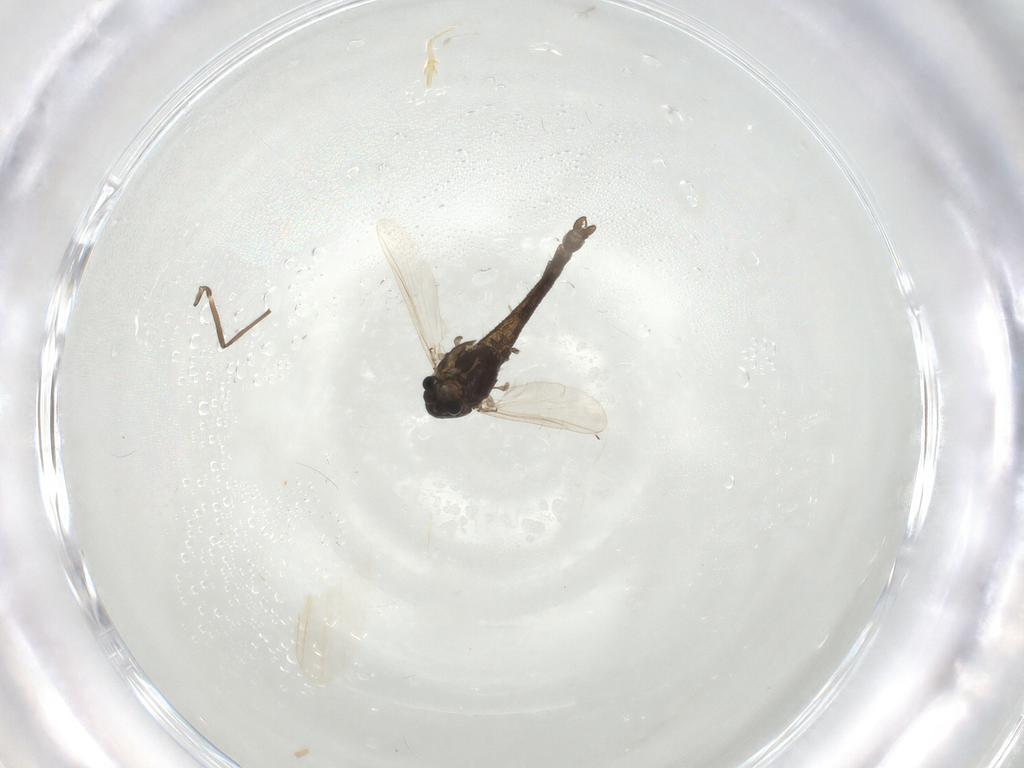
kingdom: Animalia
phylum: Arthropoda
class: Insecta
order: Diptera
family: Chironomidae
